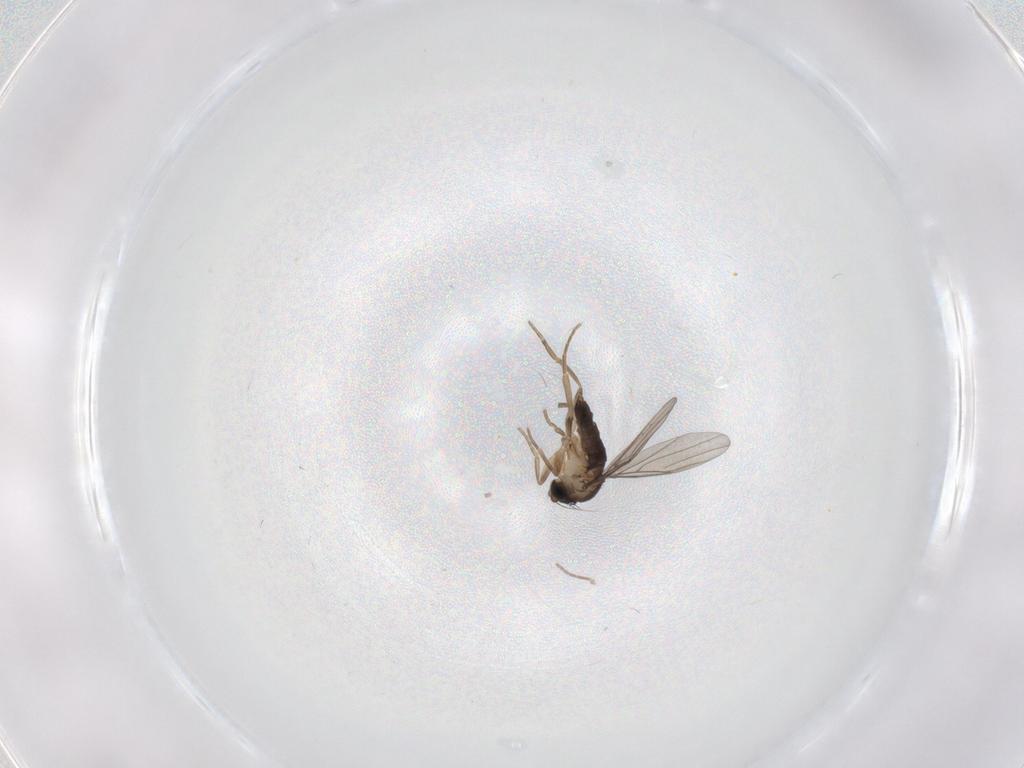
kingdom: Animalia
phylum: Arthropoda
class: Insecta
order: Diptera
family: Phoridae
